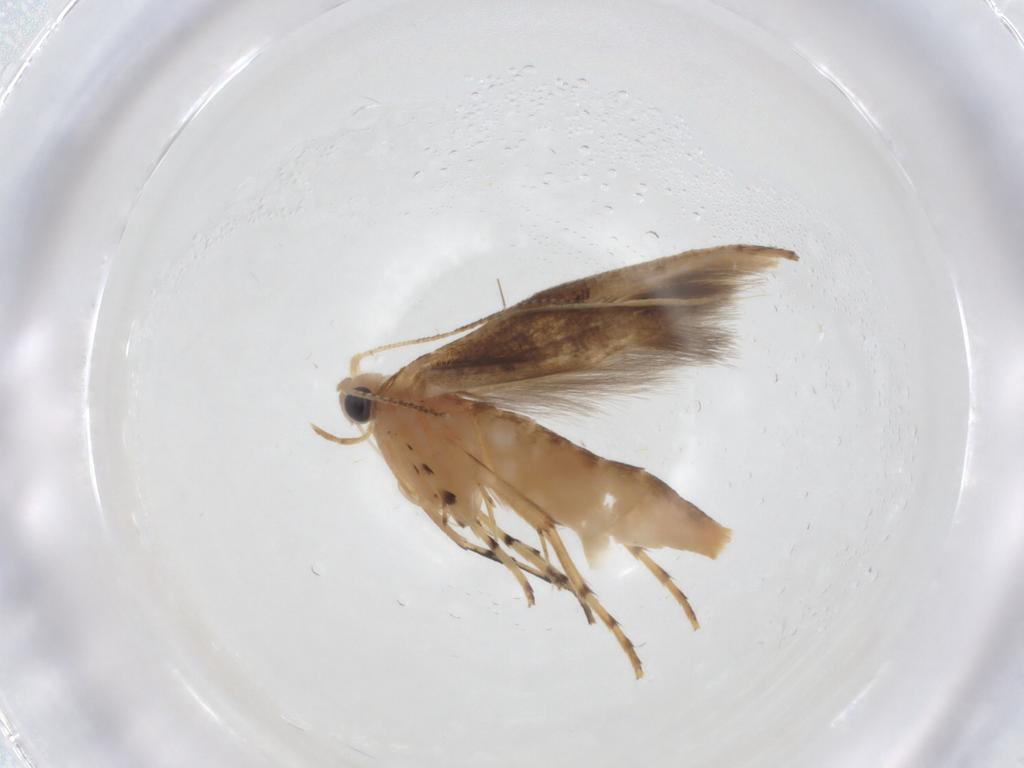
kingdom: Animalia
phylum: Arthropoda
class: Insecta
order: Lepidoptera
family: Argyresthiidae
